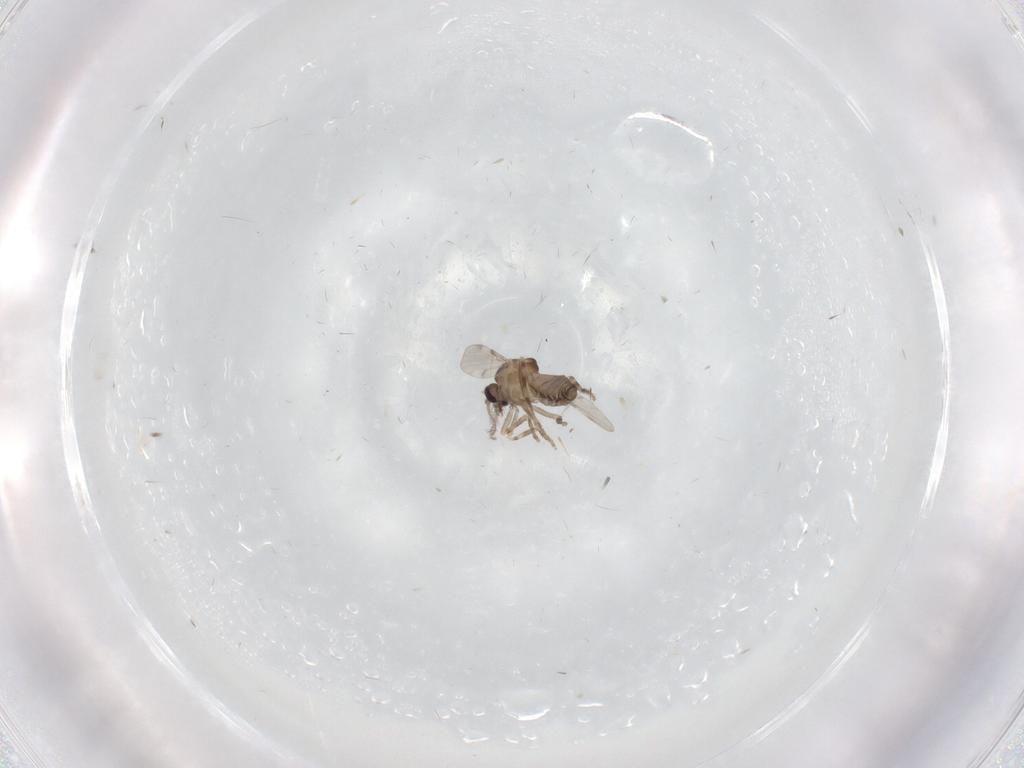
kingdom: Animalia
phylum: Arthropoda
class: Insecta
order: Diptera
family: Ceratopogonidae
